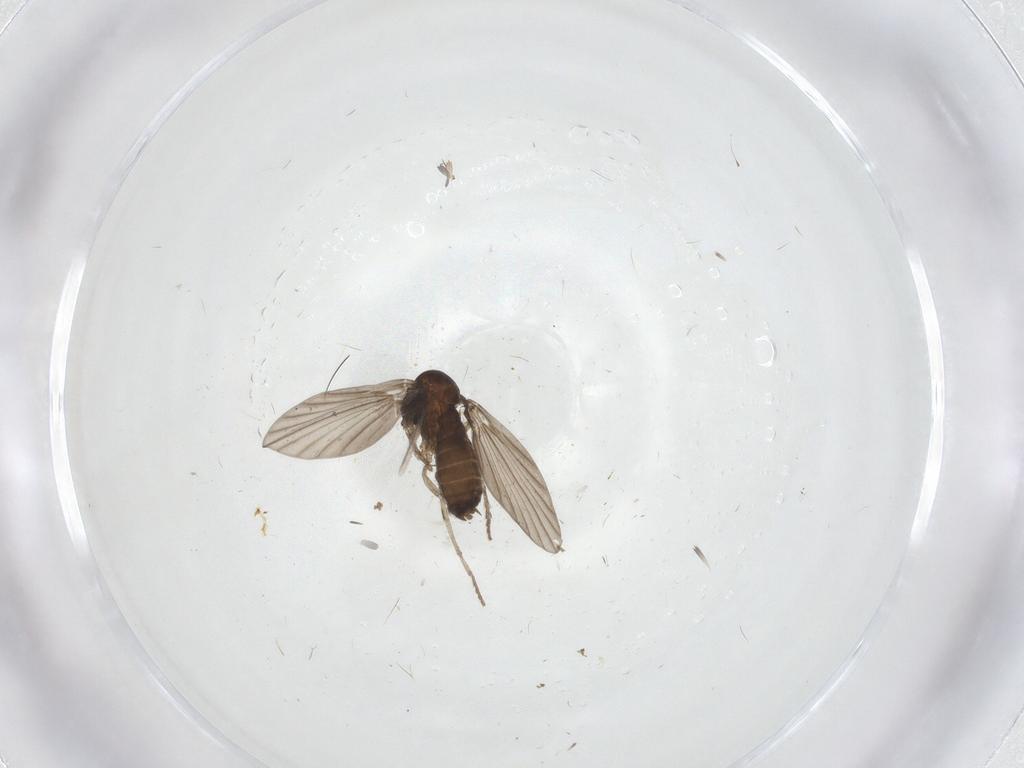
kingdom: Animalia
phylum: Arthropoda
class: Insecta
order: Diptera
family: Psychodidae
